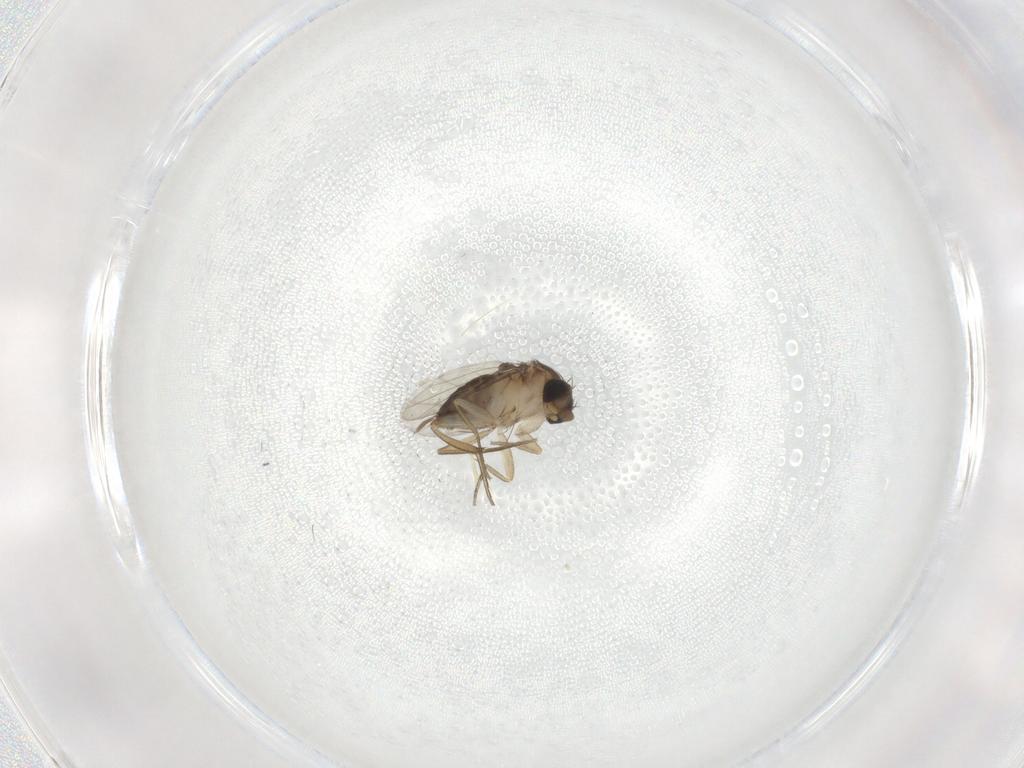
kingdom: Animalia
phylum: Arthropoda
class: Insecta
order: Diptera
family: Phoridae
